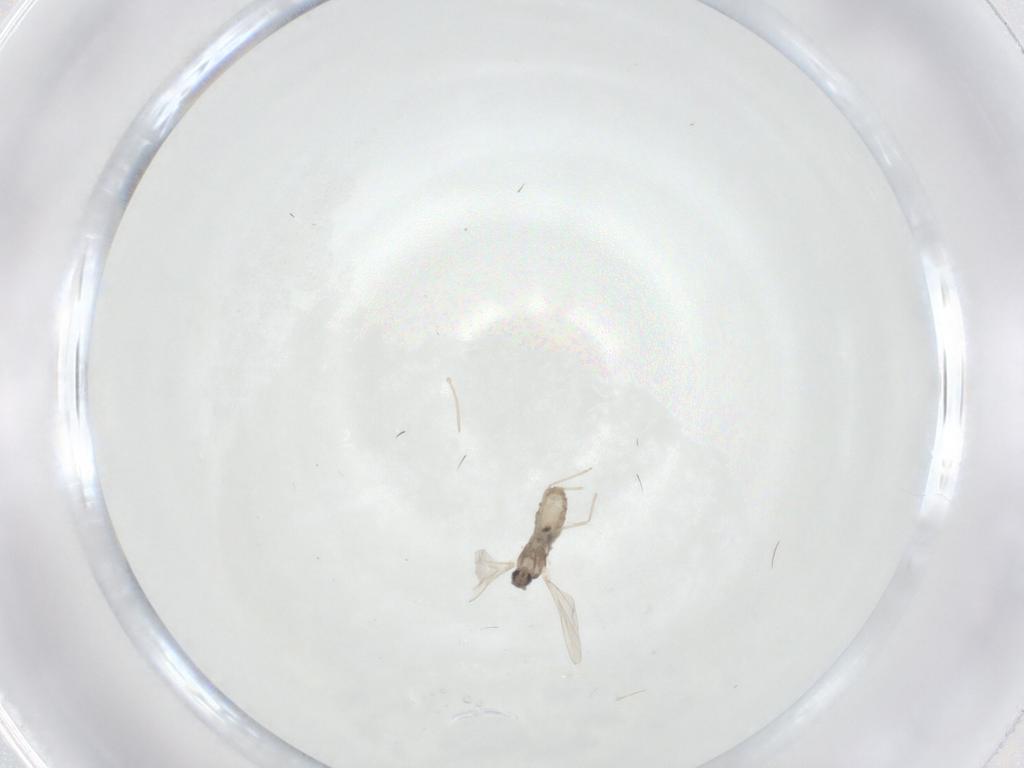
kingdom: Animalia
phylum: Arthropoda
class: Insecta
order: Diptera
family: Cecidomyiidae
